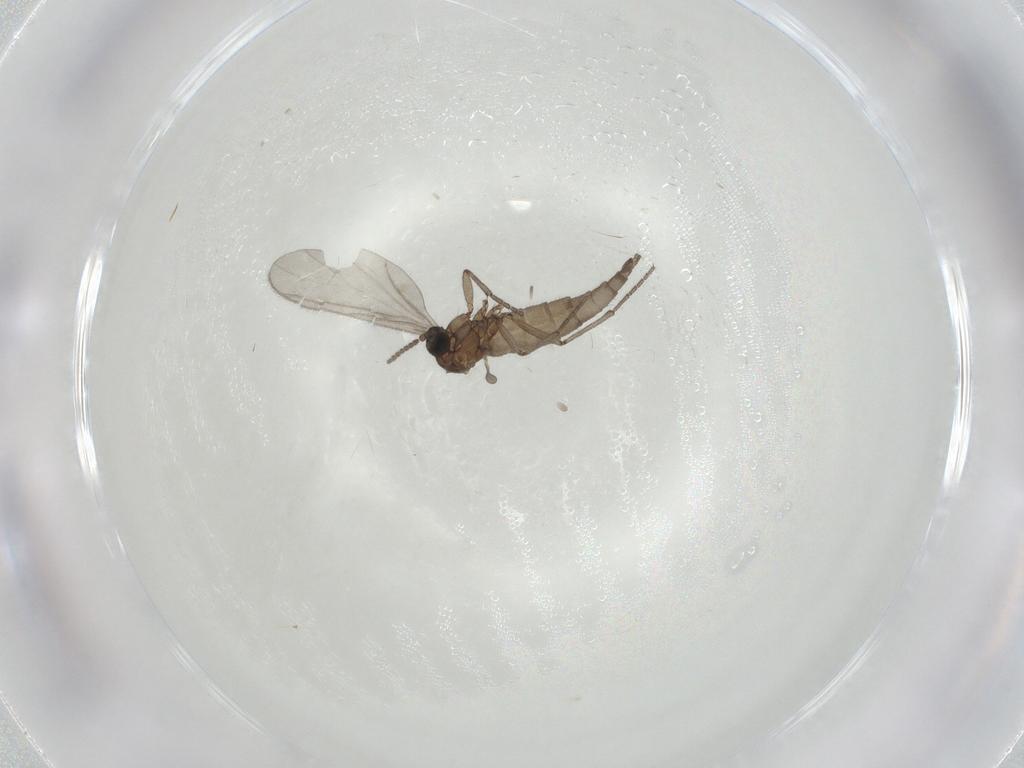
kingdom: Animalia
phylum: Arthropoda
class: Insecta
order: Diptera
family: Sciaridae
